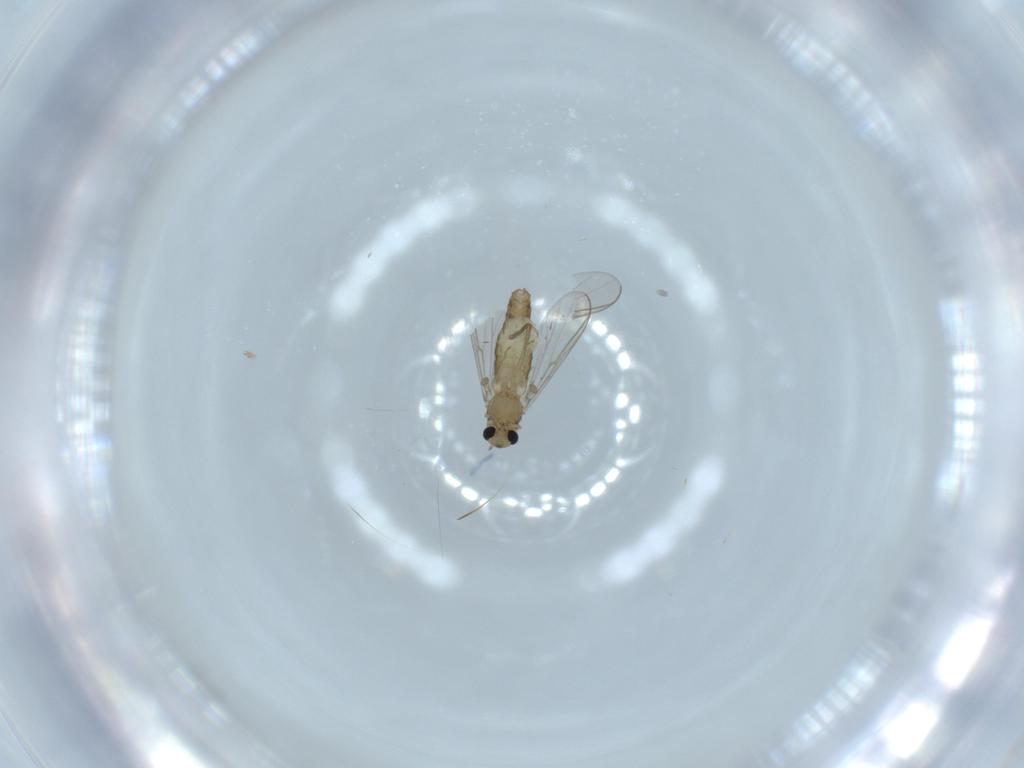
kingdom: Animalia
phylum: Arthropoda
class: Insecta
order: Diptera
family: Chironomidae
